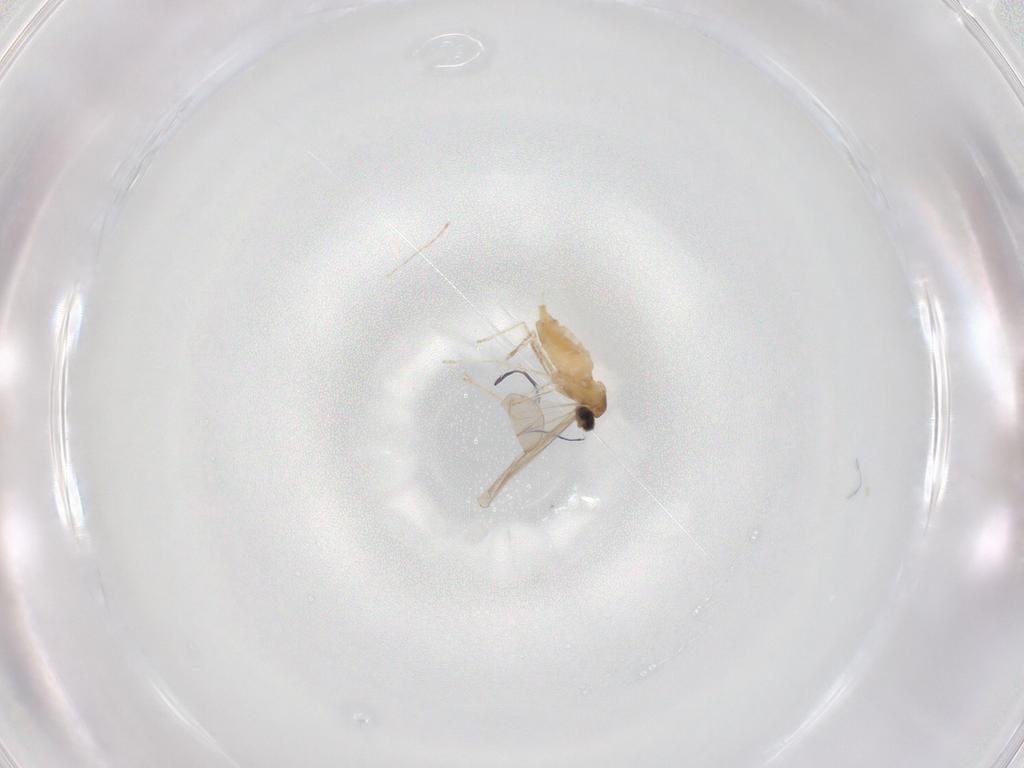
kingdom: Animalia
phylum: Arthropoda
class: Insecta
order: Diptera
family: Cecidomyiidae
